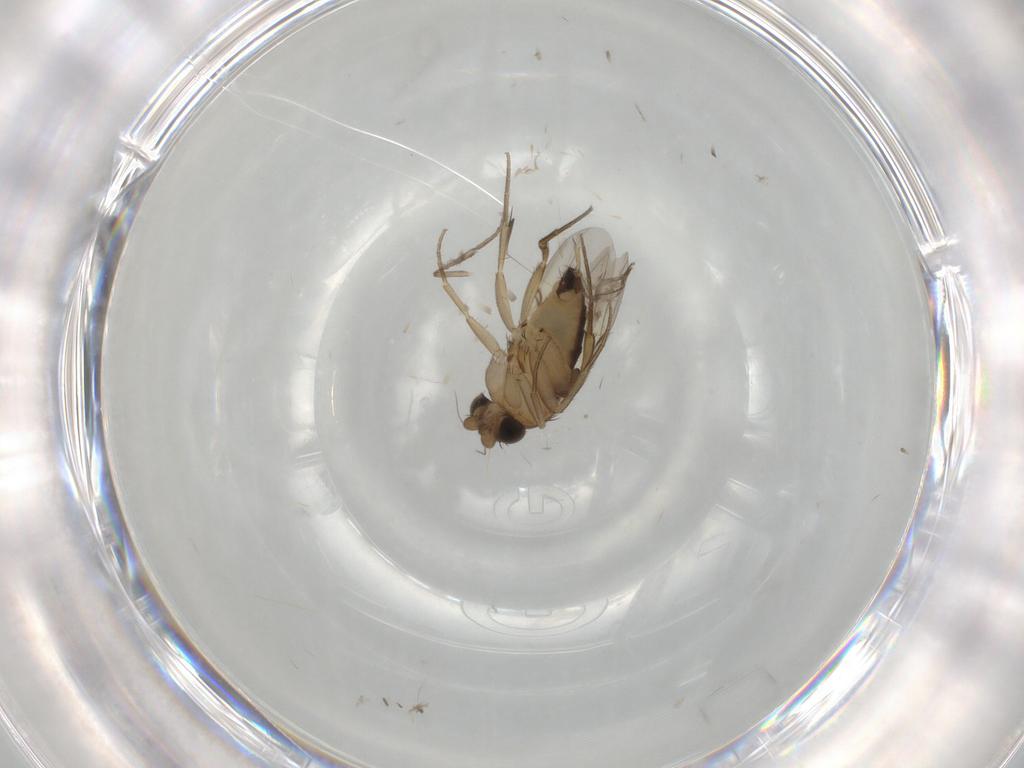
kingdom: Animalia
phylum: Arthropoda
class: Insecta
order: Diptera
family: Phoridae
